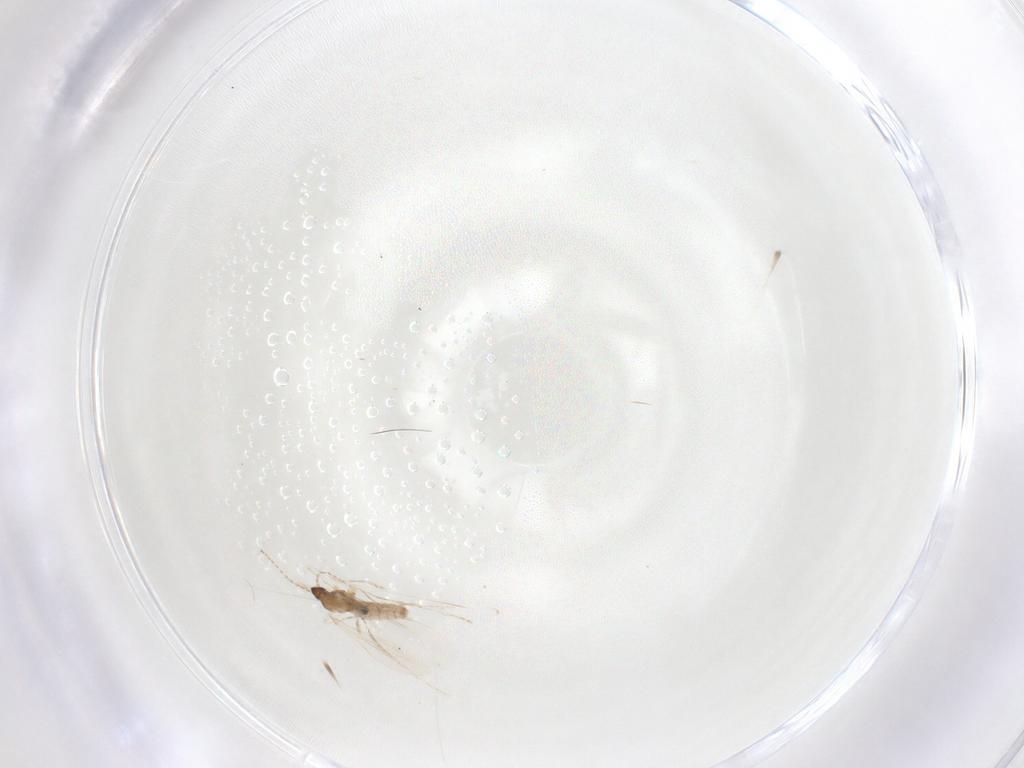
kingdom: Animalia
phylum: Arthropoda
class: Insecta
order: Diptera
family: Cecidomyiidae
